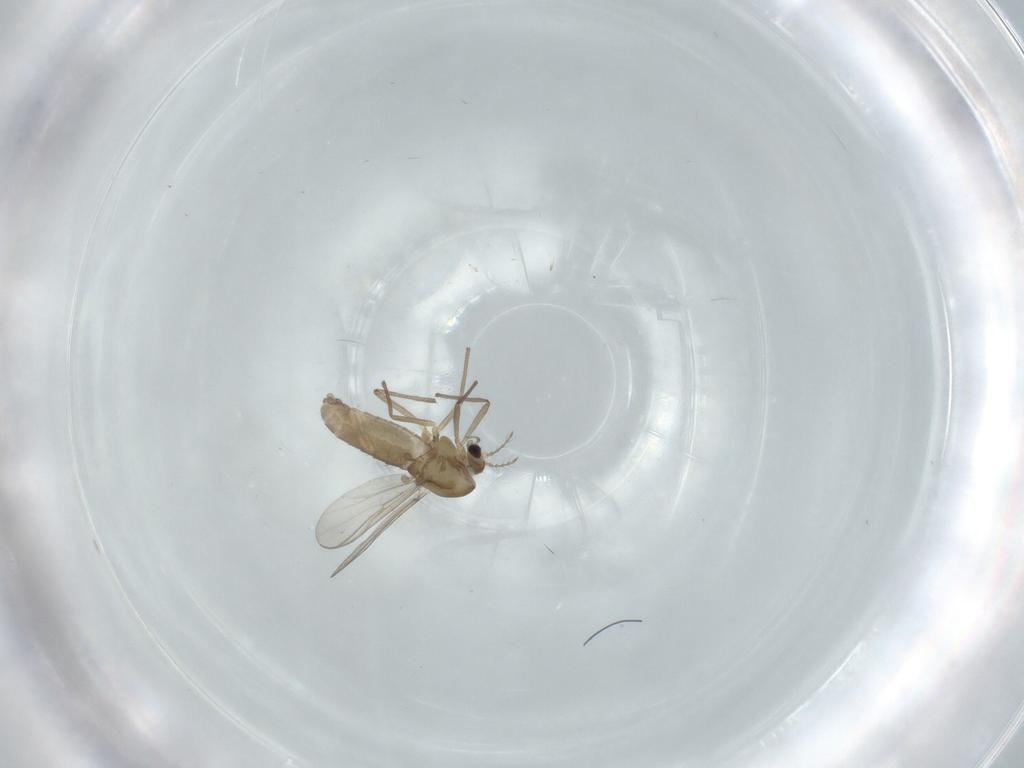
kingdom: Animalia
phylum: Arthropoda
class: Insecta
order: Diptera
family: Chironomidae
